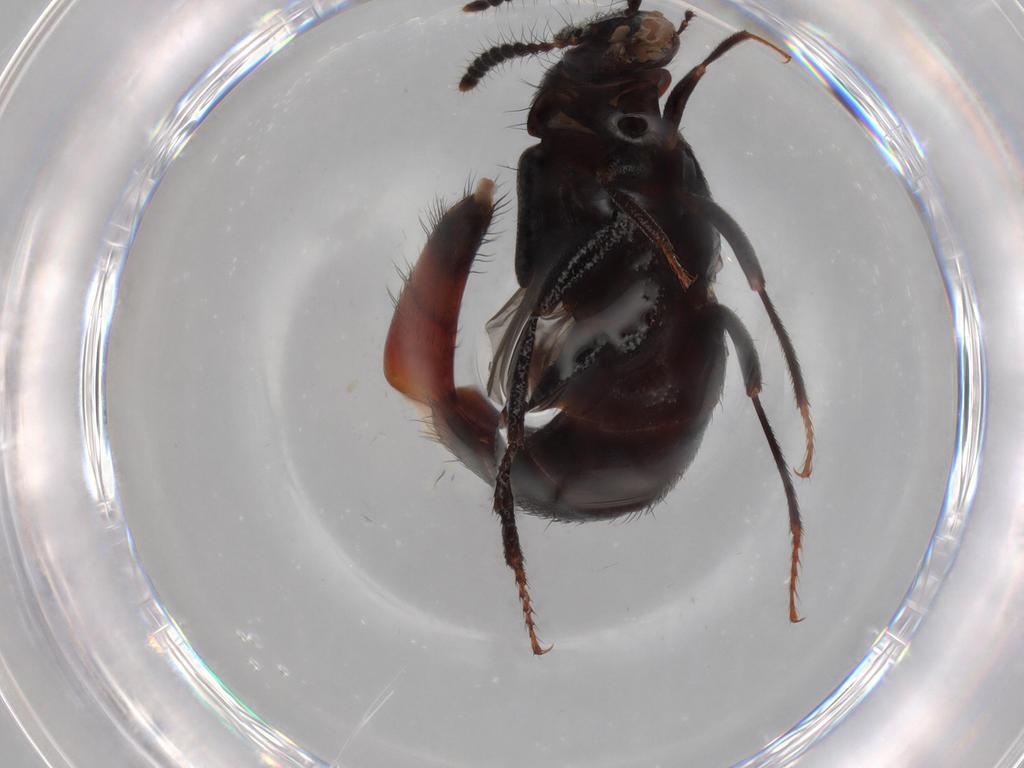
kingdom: Animalia
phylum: Arthropoda
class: Insecta
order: Coleoptera
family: Staphylinidae
